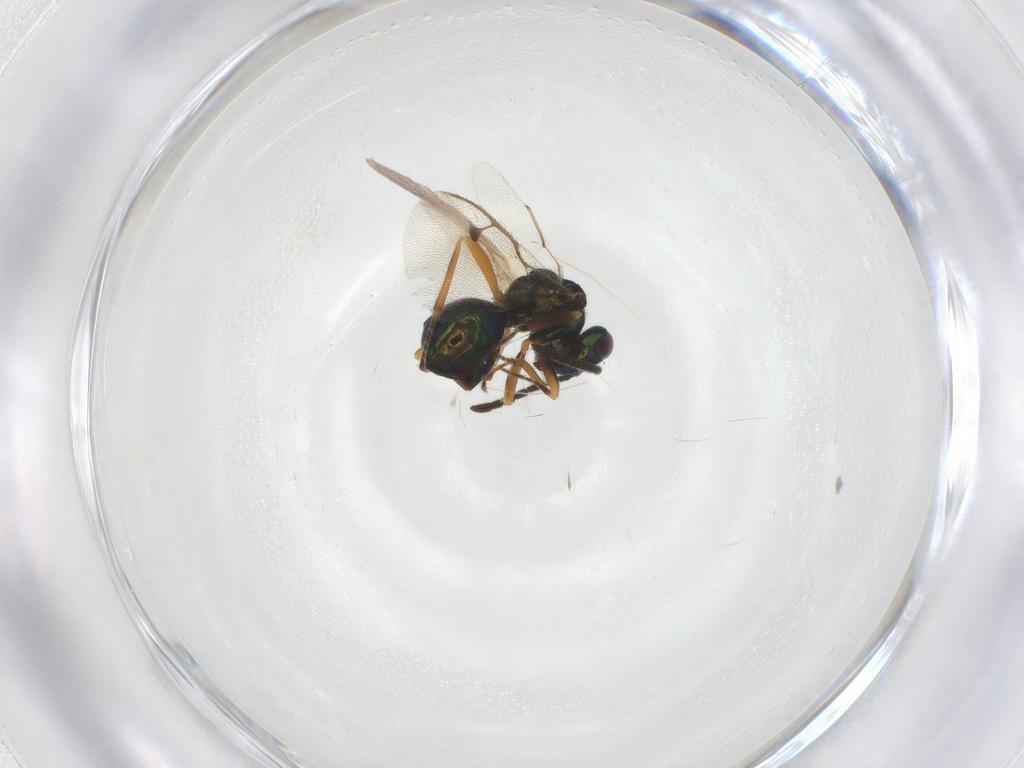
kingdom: Animalia
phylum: Arthropoda
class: Insecta
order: Hymenoptera
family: Pteromalidae
